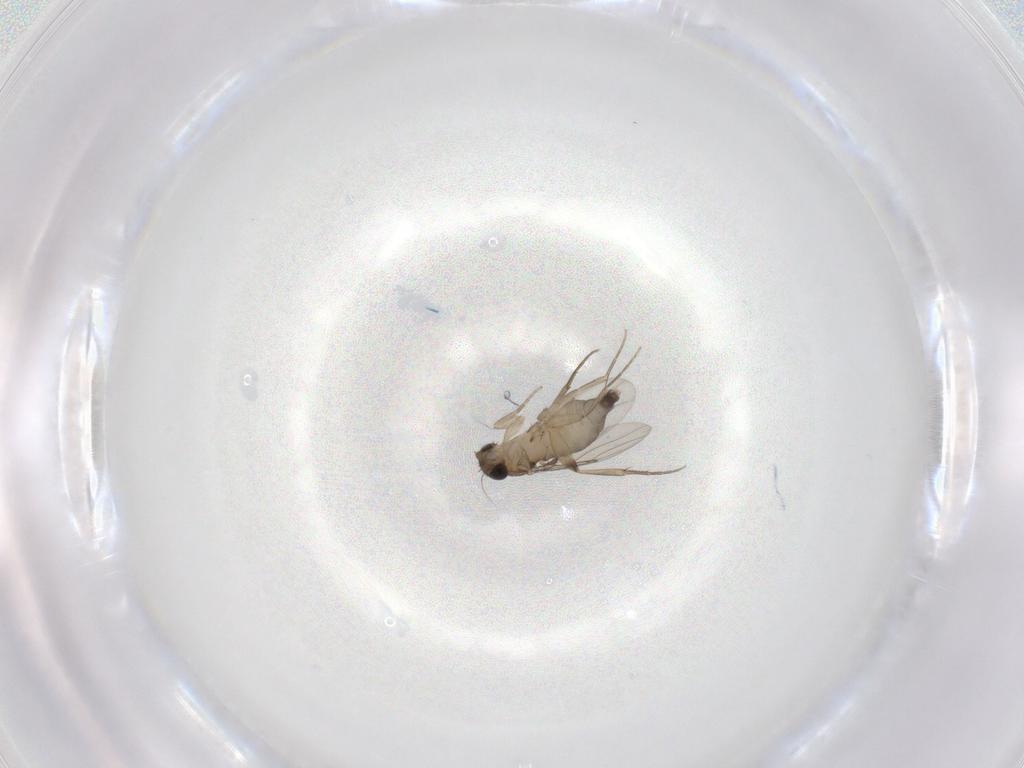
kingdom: Animalia
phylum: Arthropoda
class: Insecta
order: Diptera
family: Phoridae
